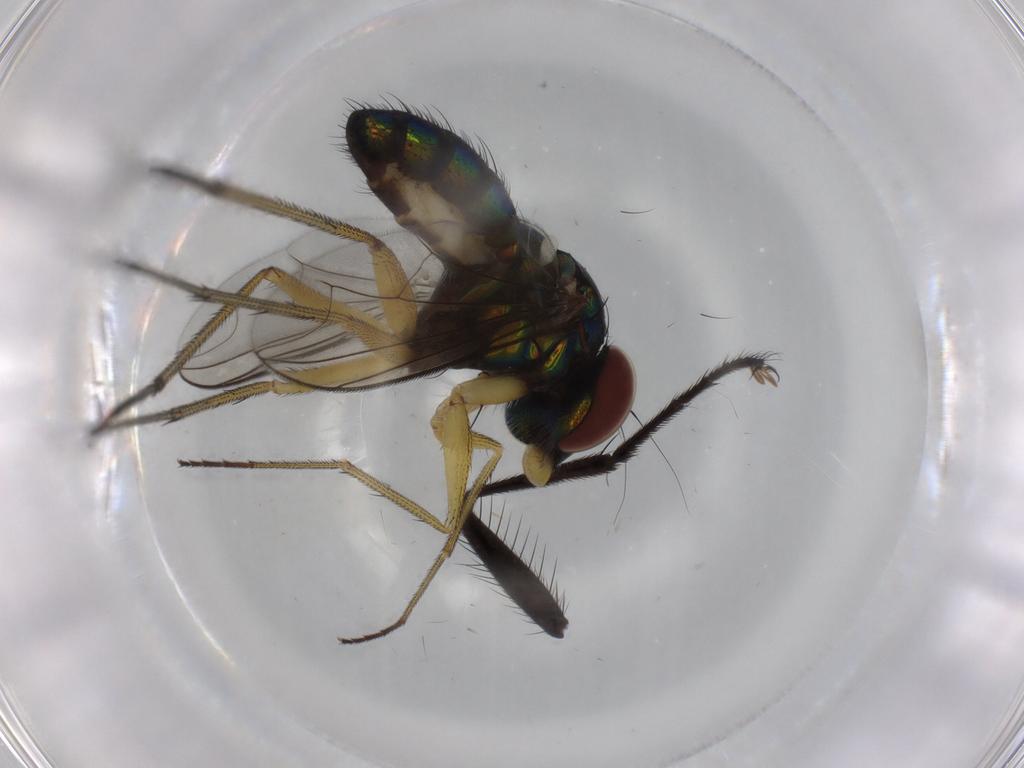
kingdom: Animalia
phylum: Arthropoda
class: Insecta
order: Diptera
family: Dolichopodidae
